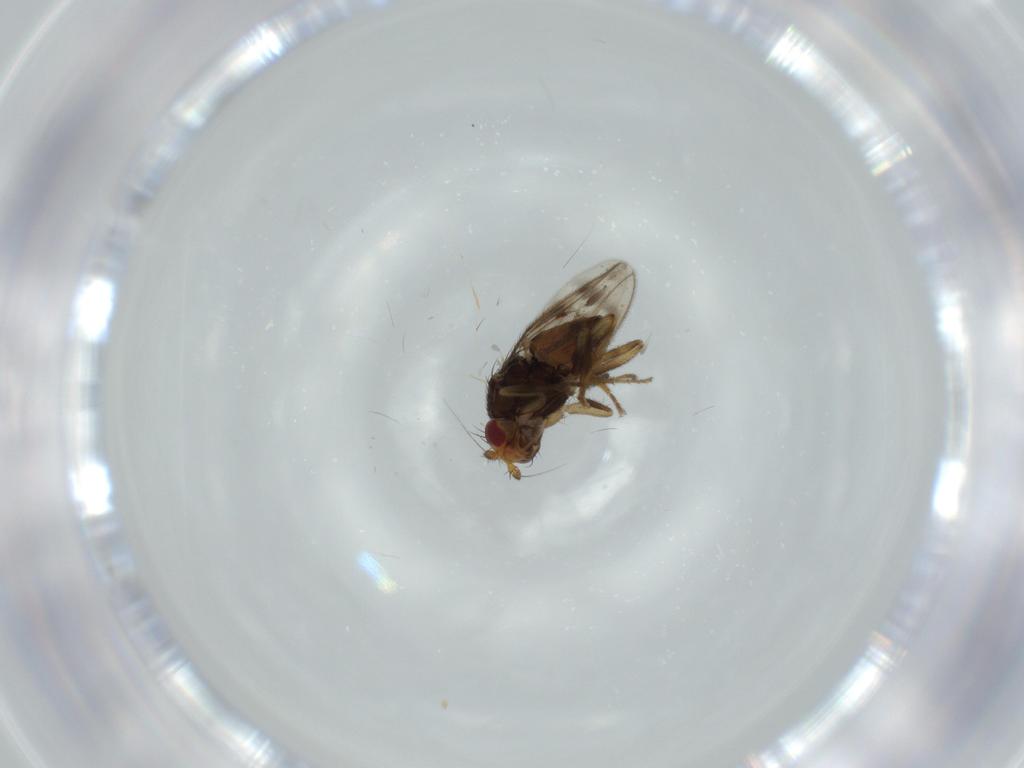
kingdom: Animalia
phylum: Arthropoda
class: Insecta
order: Diptera
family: Sphaeroceridae
